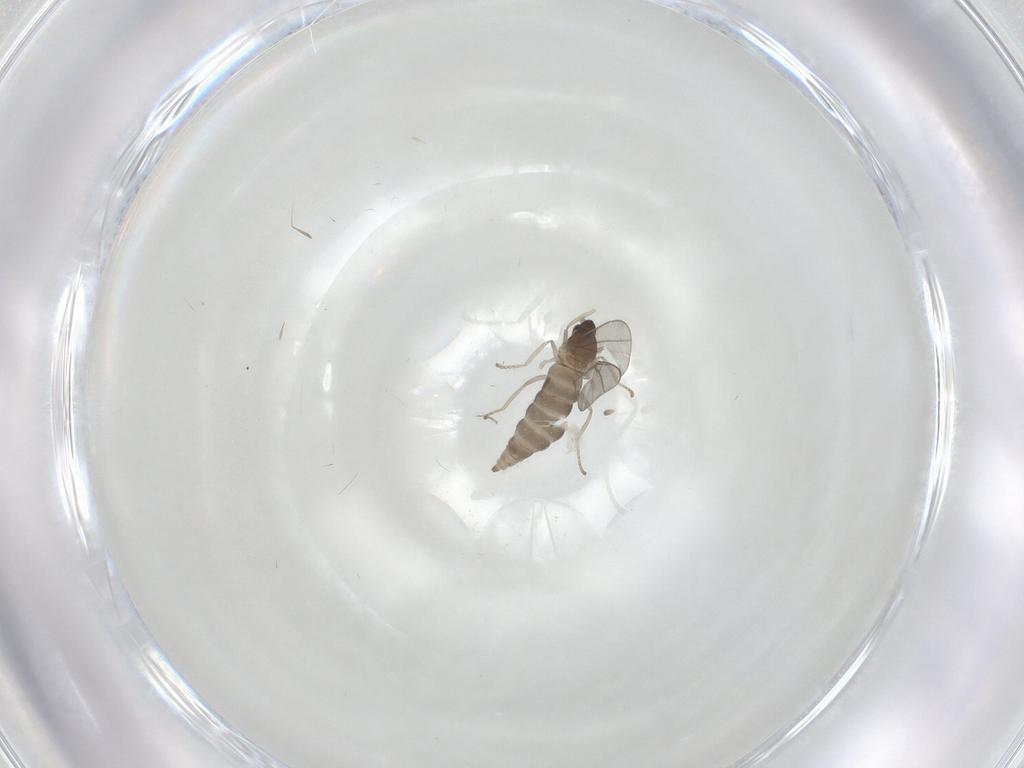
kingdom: Animalia
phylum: Arthropoda
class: Insecta
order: Diptera
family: Cecidomyiidae
